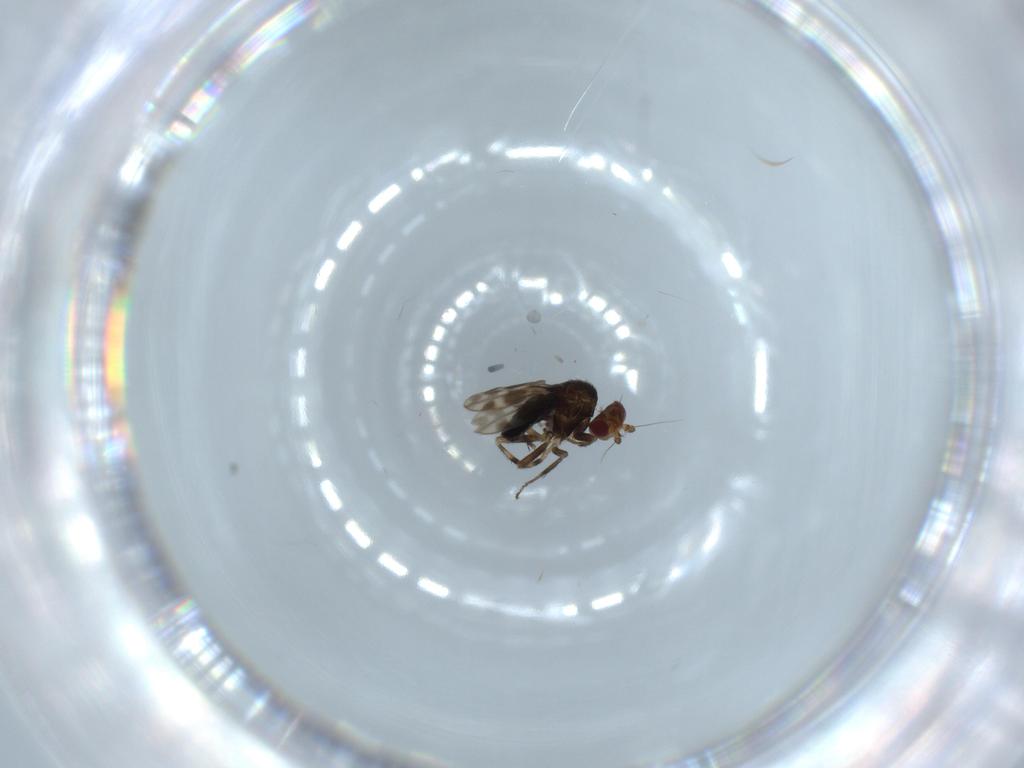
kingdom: Animalia
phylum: Arthropoda
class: Insecta
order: Diptera
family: Sphaeroceridae
